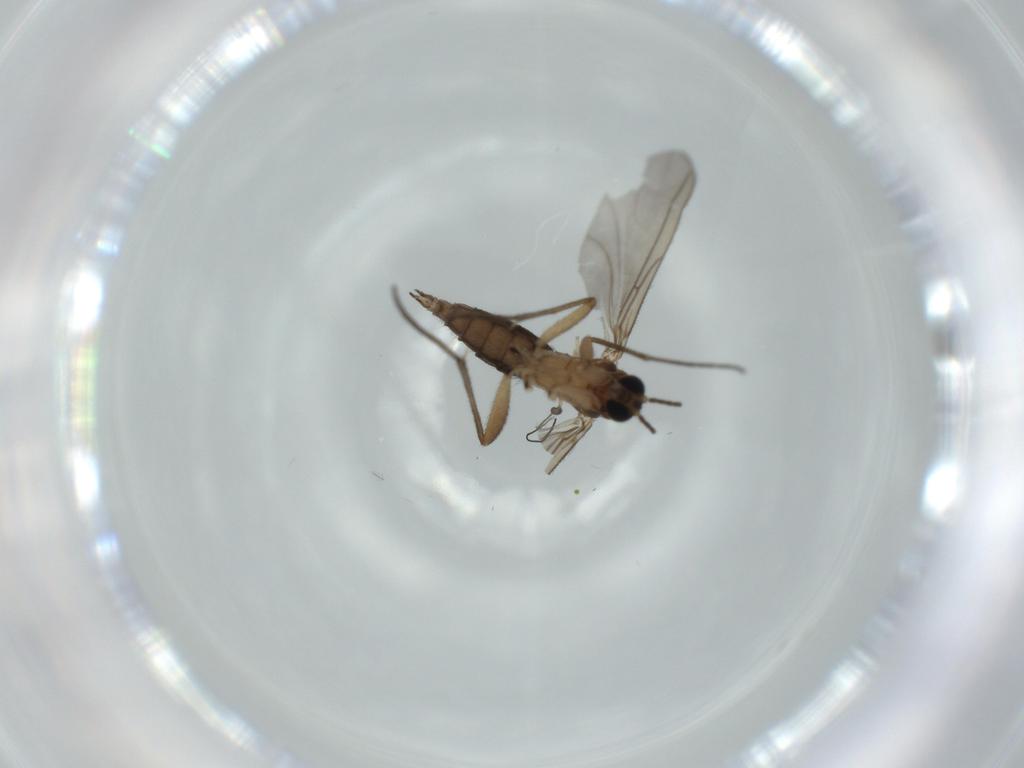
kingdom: Animalia
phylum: Arthropoda
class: Insecta
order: Diptera
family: Sciaridae
